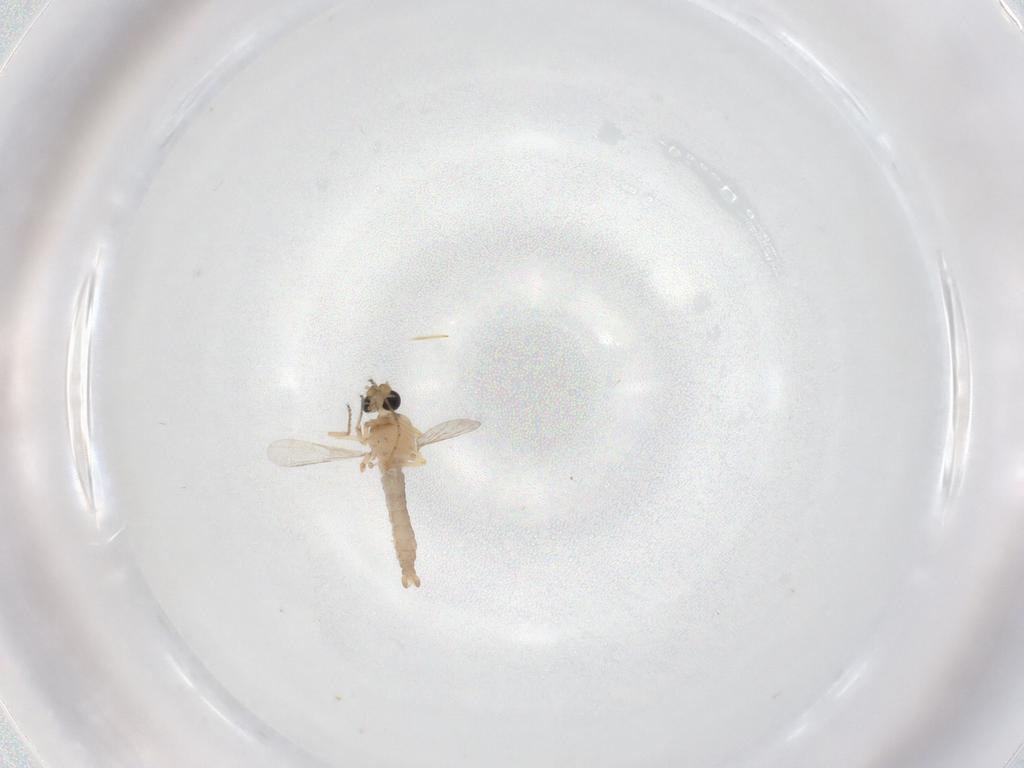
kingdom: Animalia
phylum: Arthropoda
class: Insecta
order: Diptera
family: Ceratopogonidae
